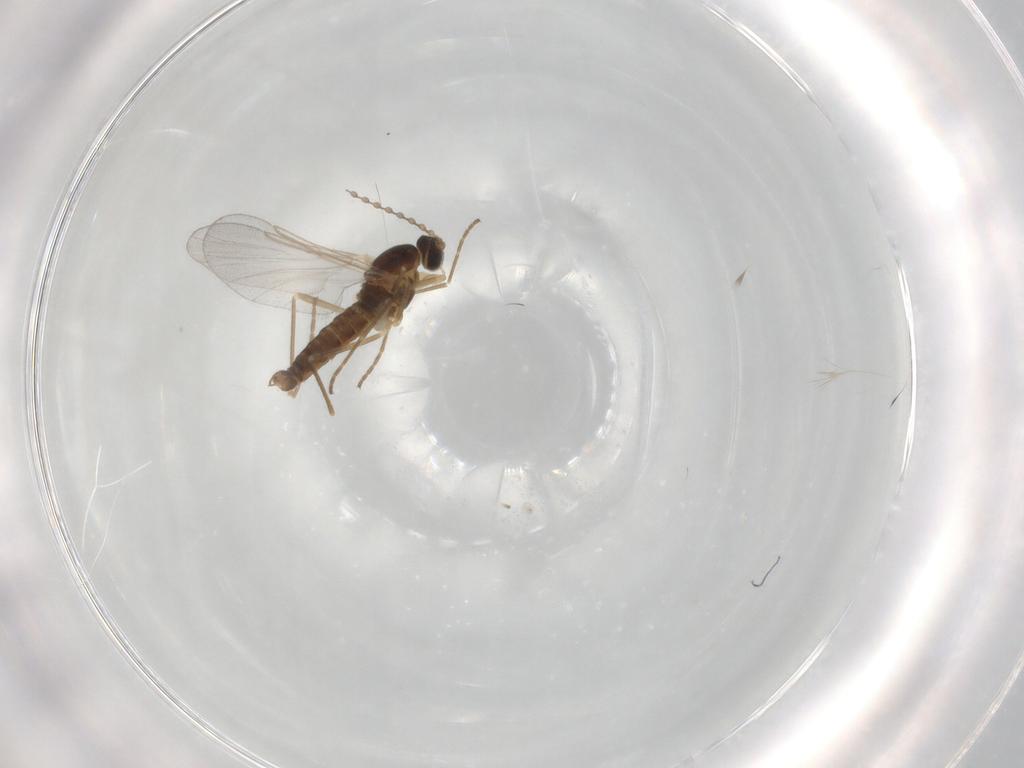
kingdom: Animalia
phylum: Arthropoda
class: Insecta
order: Diptera
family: Cecidomyiidae
